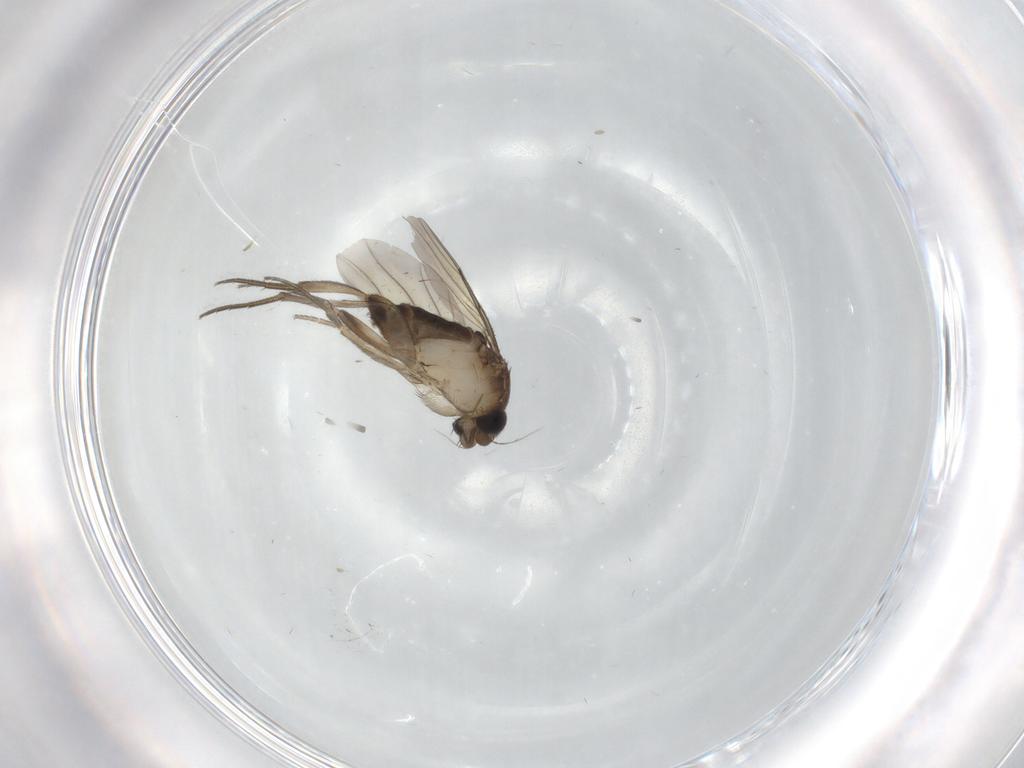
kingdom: Animalia
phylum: Arthropoda
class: Insecta
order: Diptera
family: Phoridae
